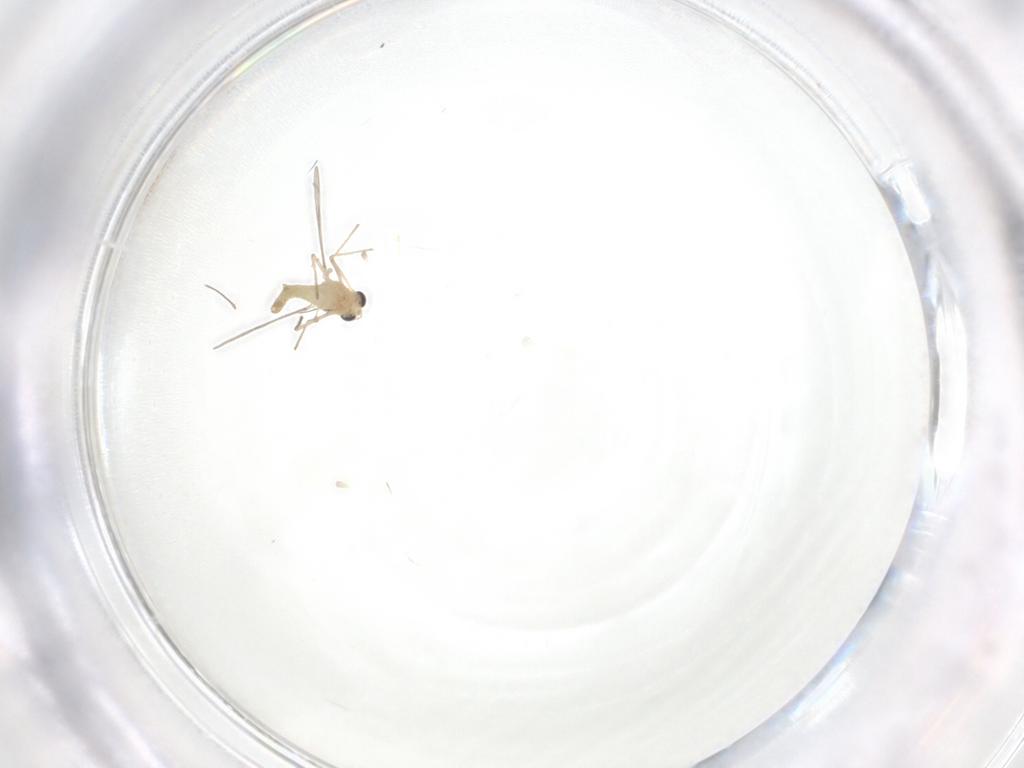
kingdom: Animalia
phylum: Arthropoda
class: Insecta
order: Diptera
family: Chironomidae
